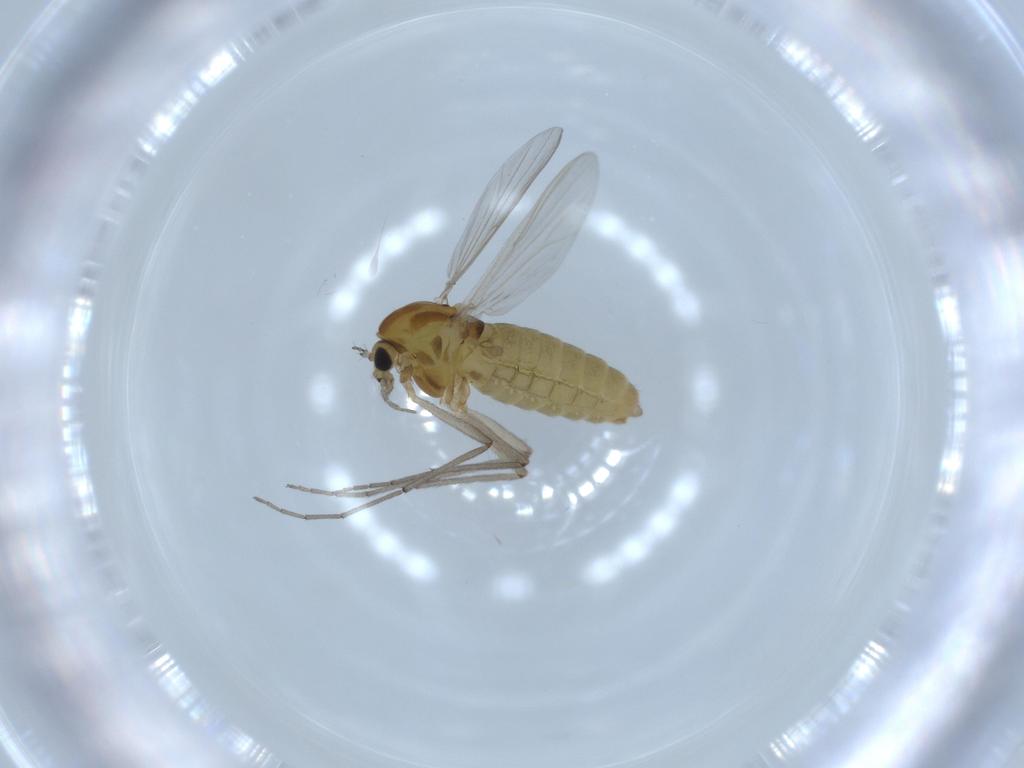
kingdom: Animalia
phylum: Arthropoda
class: Insecta
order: Diptera
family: Chironomidae
